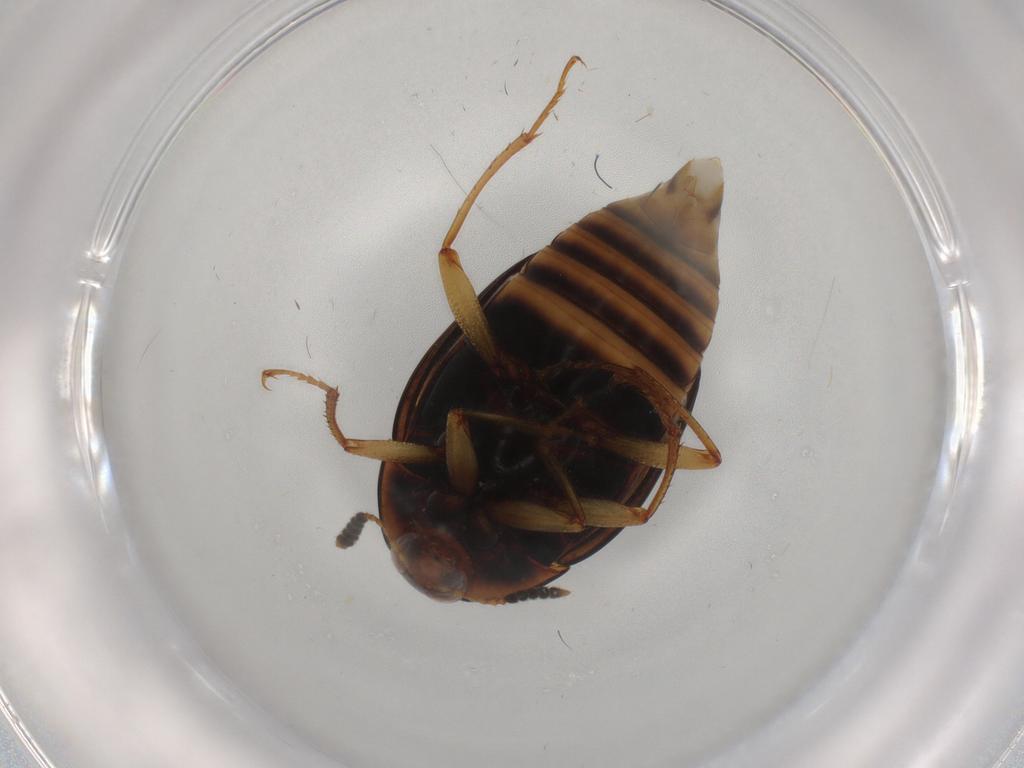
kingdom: Animalia
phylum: Arthropoda
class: Insecta
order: Coleoptera
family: Staphylinidae
